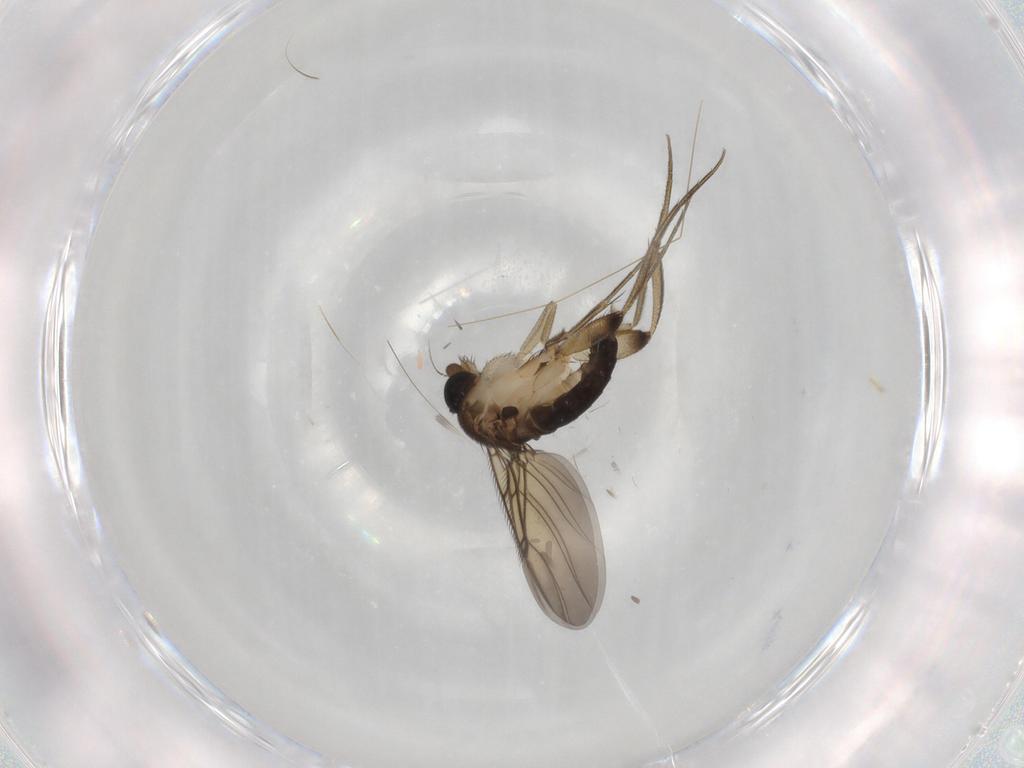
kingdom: Animalia
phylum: Arthropoda
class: Insecta
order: Diptera
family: Phoridae
